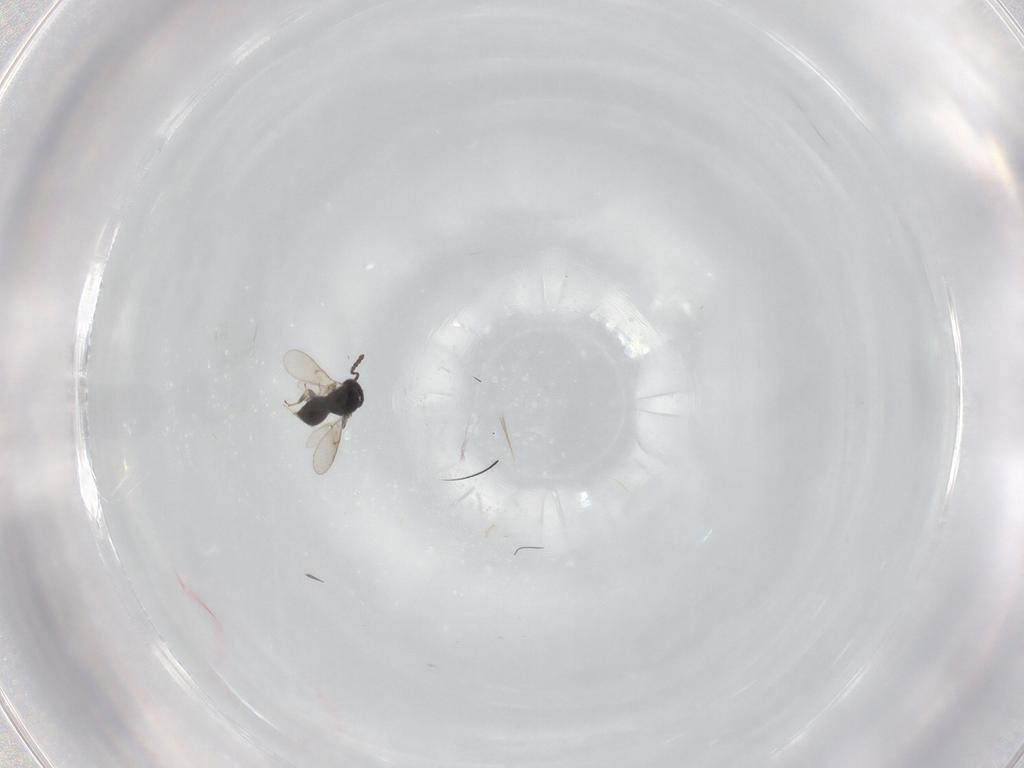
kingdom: Animalia
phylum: Arthropoda
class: Insecta
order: Hymenoptera
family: Scelionidae
